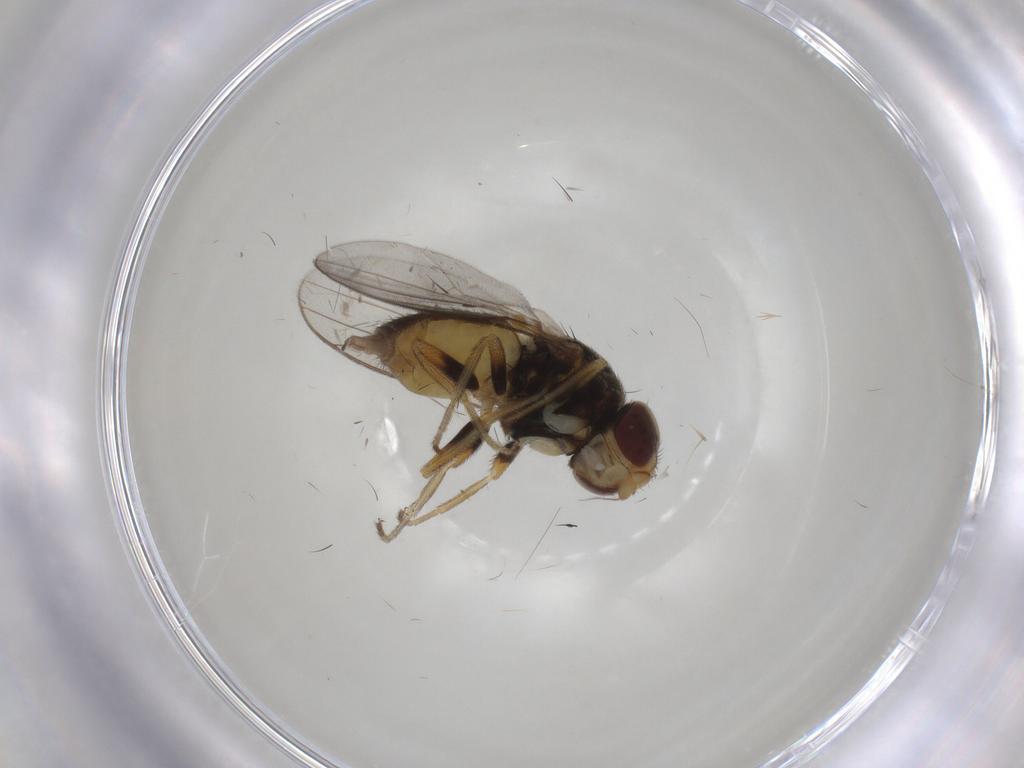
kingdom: Animalia
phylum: Arthropoda
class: Insecta
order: Diptera
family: Chloropidae
